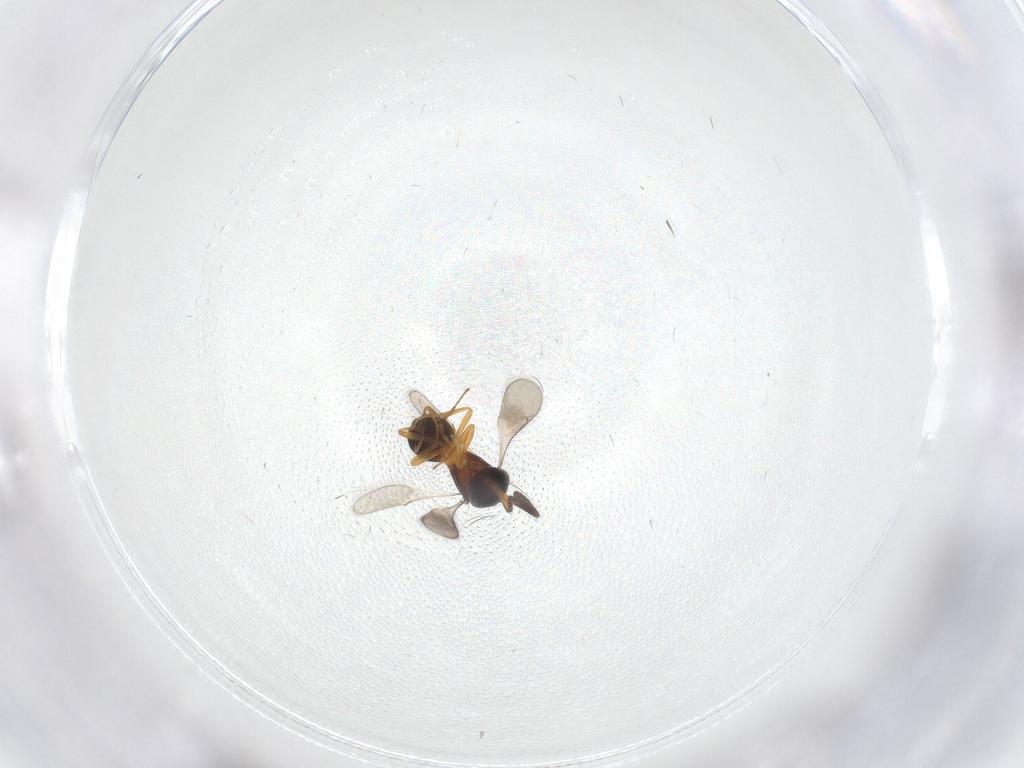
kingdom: Animalia
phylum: Arthropoda
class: Insecta
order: Hymenoptera
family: Scelionidae
